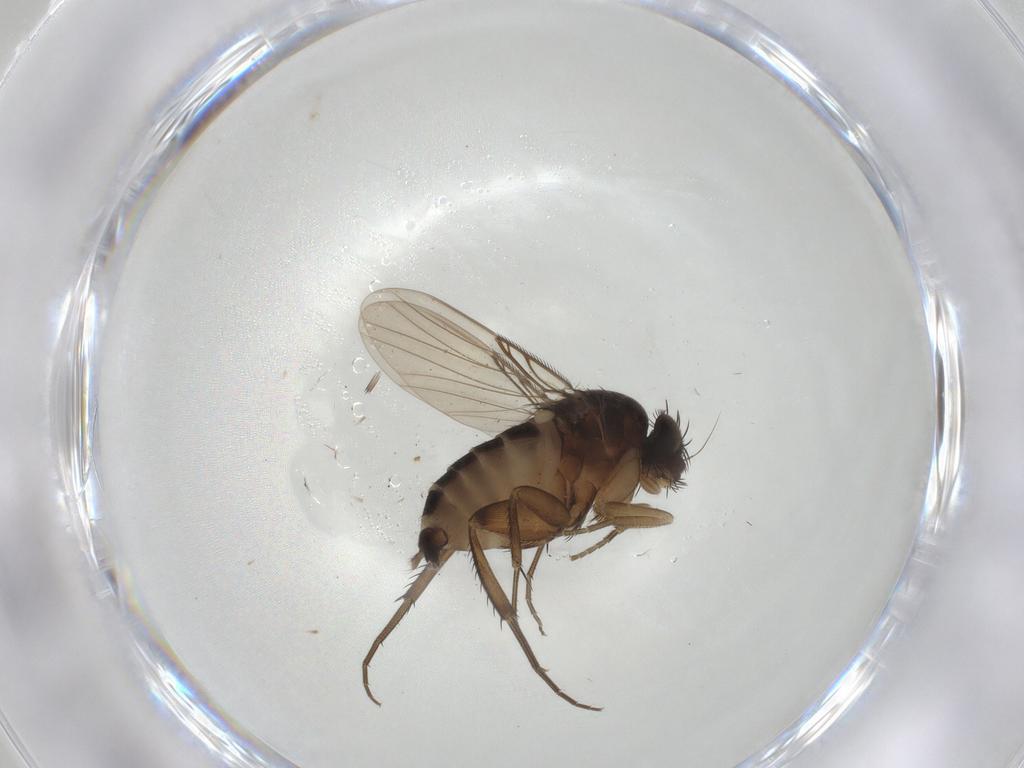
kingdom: Animalia
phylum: Arthropoda
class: Insecta
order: Diptera
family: Phoridae
